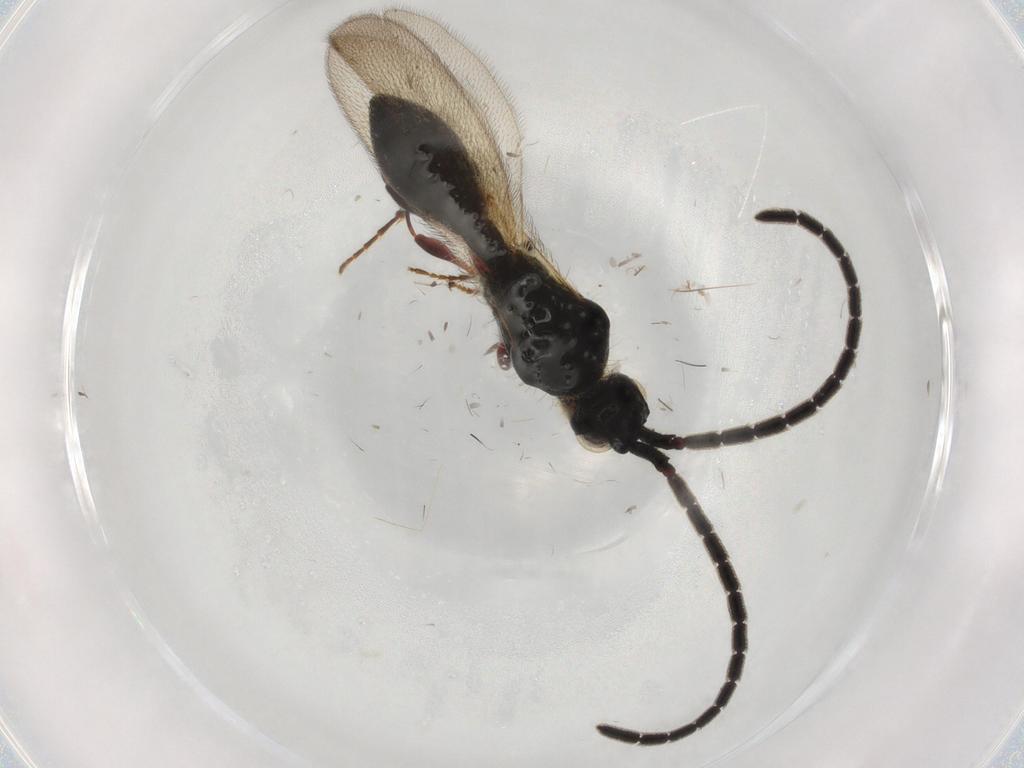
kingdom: Animalia
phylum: Arthropoda
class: Insecta
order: Hymenoptera
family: Diapriidae
